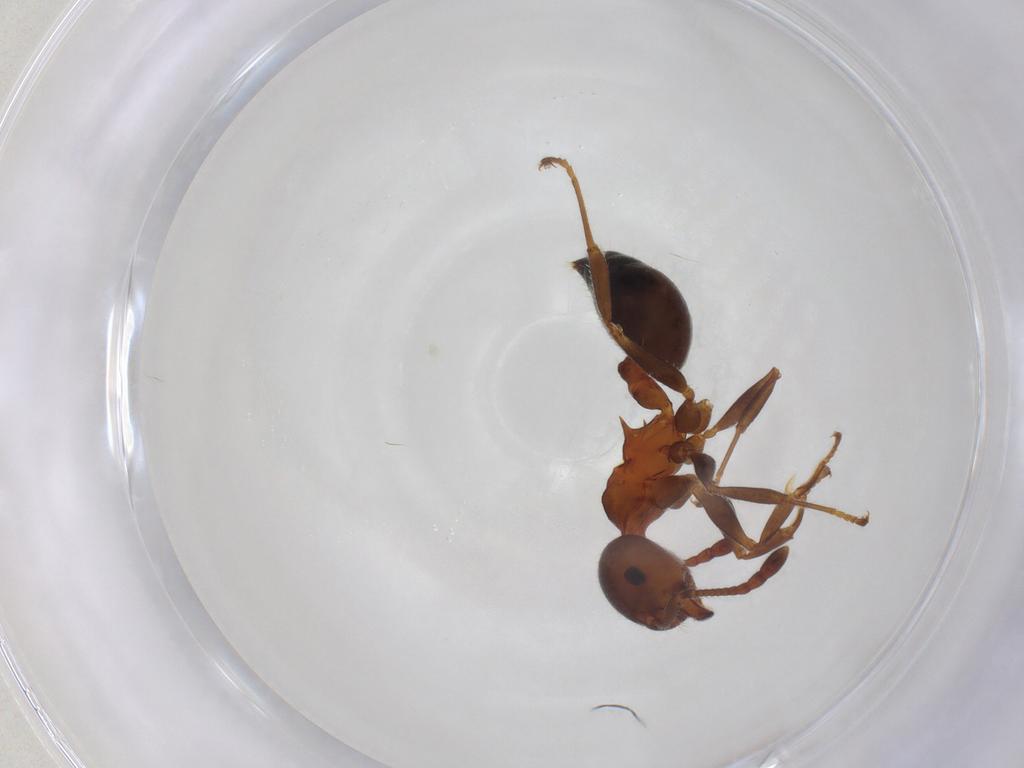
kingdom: Animalia
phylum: Arthropoda
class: Insecta
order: Hymenoptera
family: Formicidae
